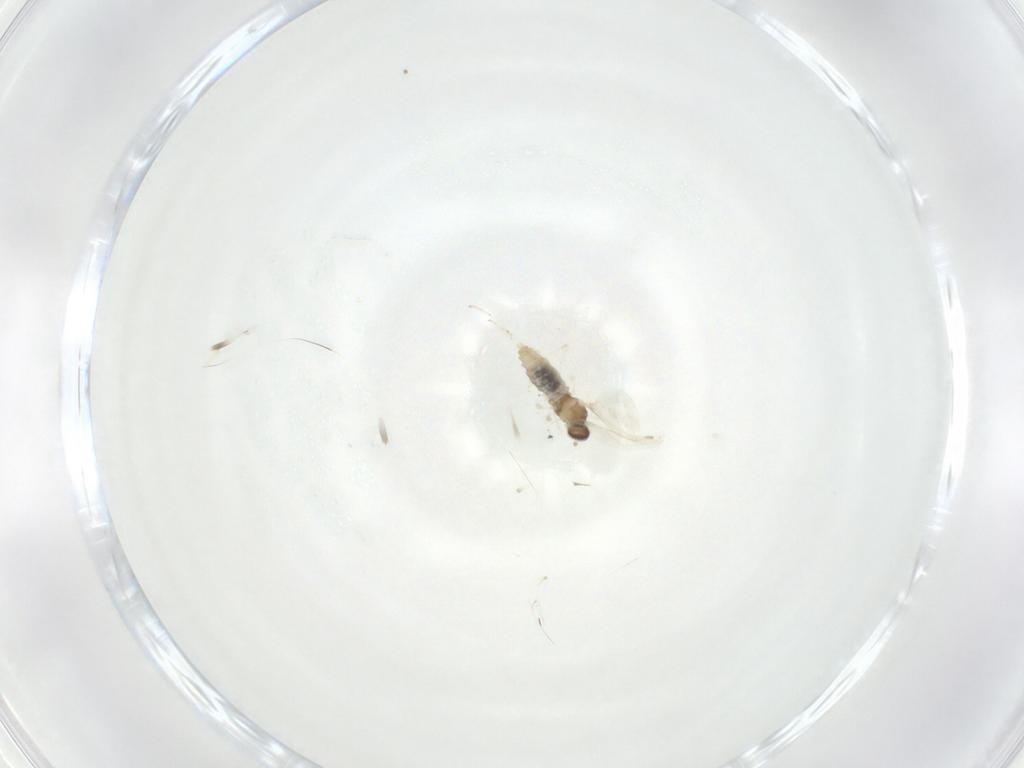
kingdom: Animalia
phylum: Arthropoda
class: Insecta
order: Diptera
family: Cecidomyiidae
